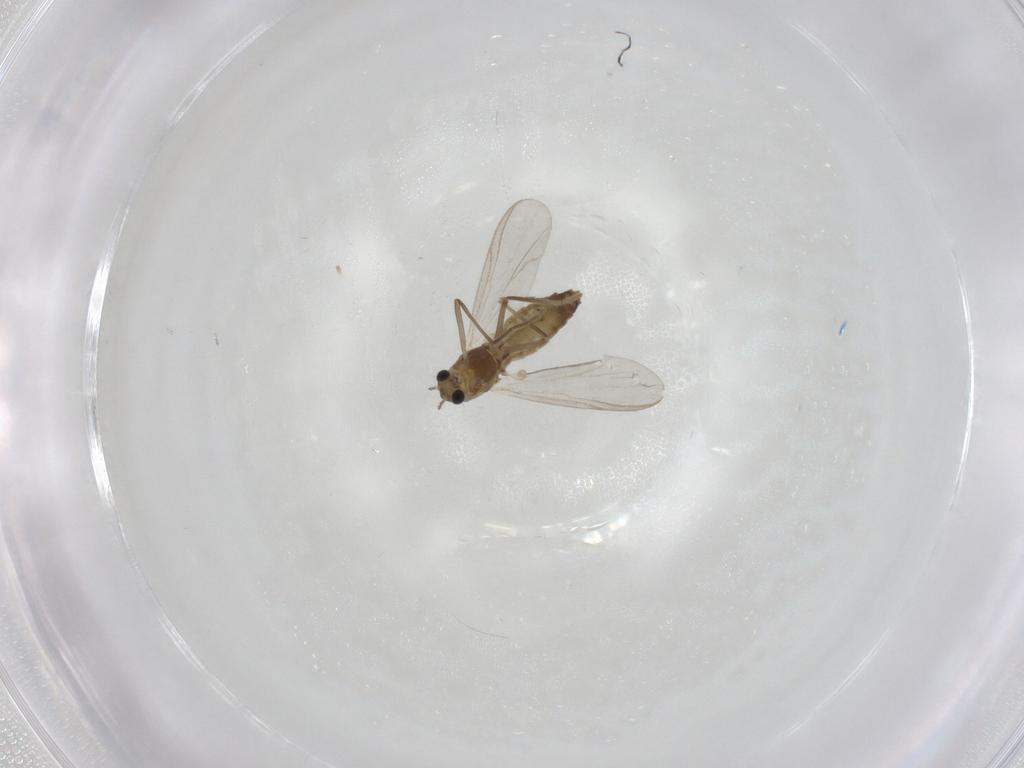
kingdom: Animalia
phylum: Arthropoda
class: Insecta
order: Diptera
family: Chironomidae
